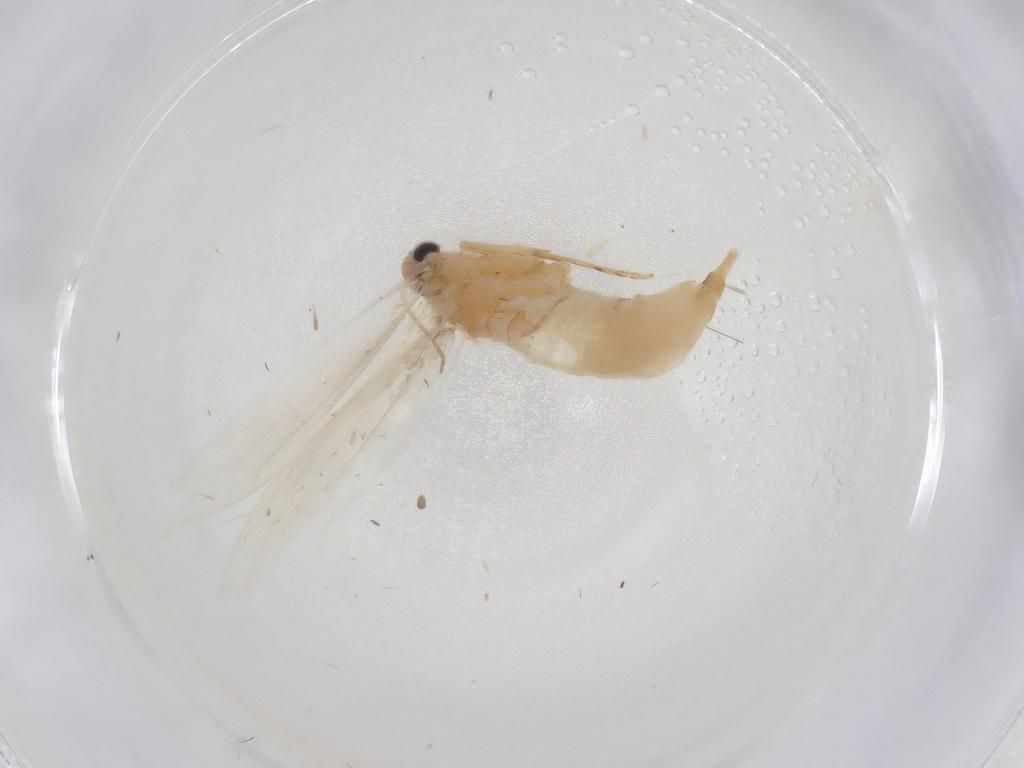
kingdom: Animalia
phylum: Arthropoda
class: Insecta
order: Lepidoptera
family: Tineidae
